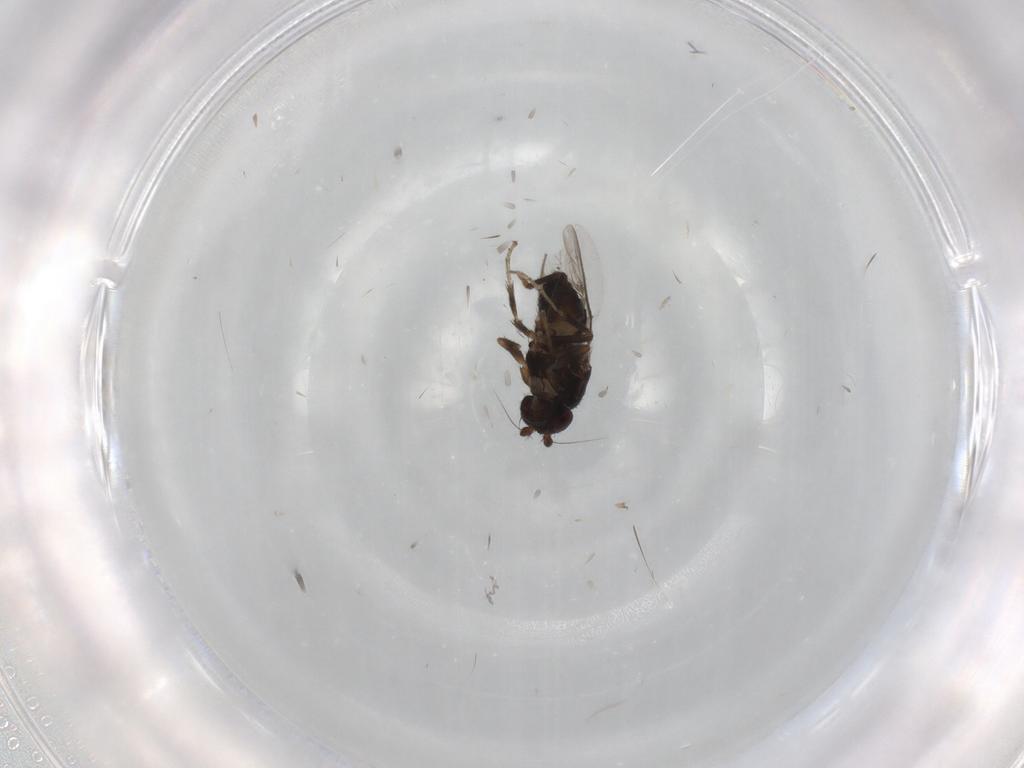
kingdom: Animalia
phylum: Arthropoda
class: Insecta
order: Diptera
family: Ceratopogonidae
